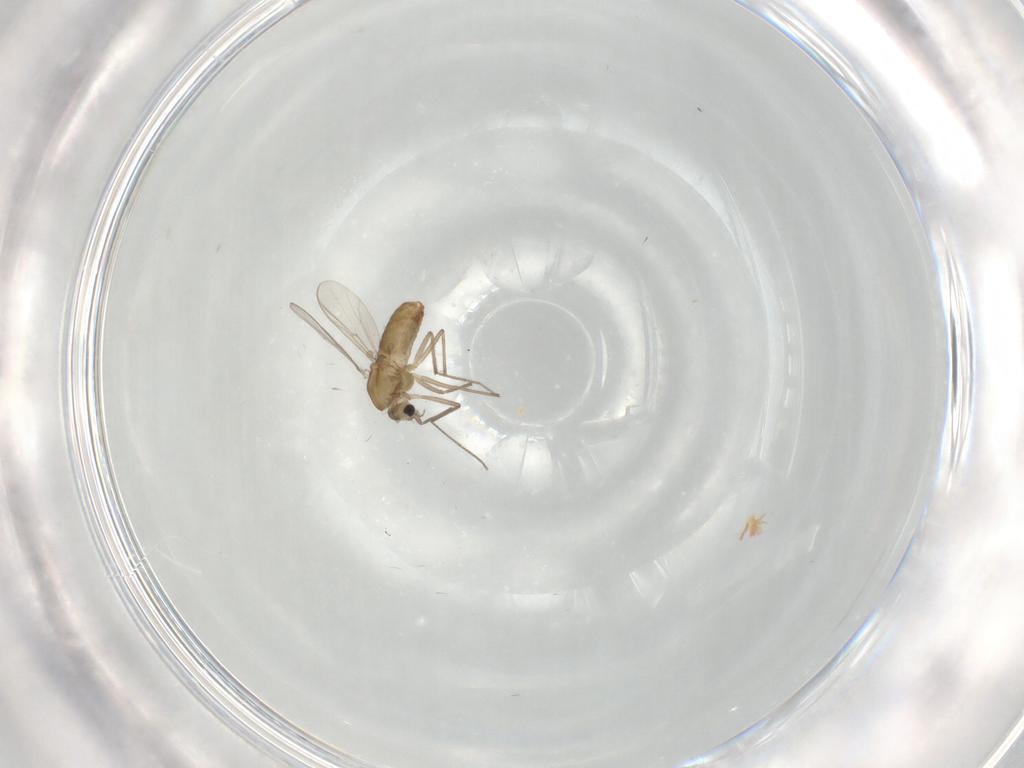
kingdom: Animalia
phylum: Arthropoda
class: Insecta
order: Diptera
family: Chironomidae
